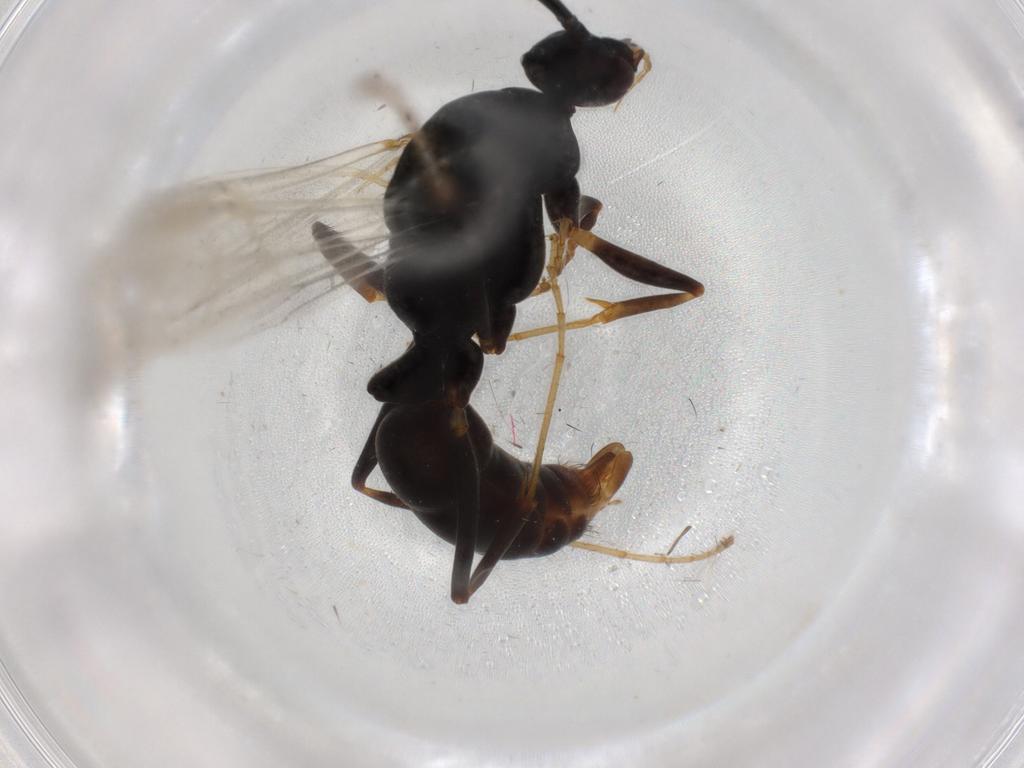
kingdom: Animalia
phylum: Arthropoda
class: Insecta
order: Hymenoptera
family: Formicidae
